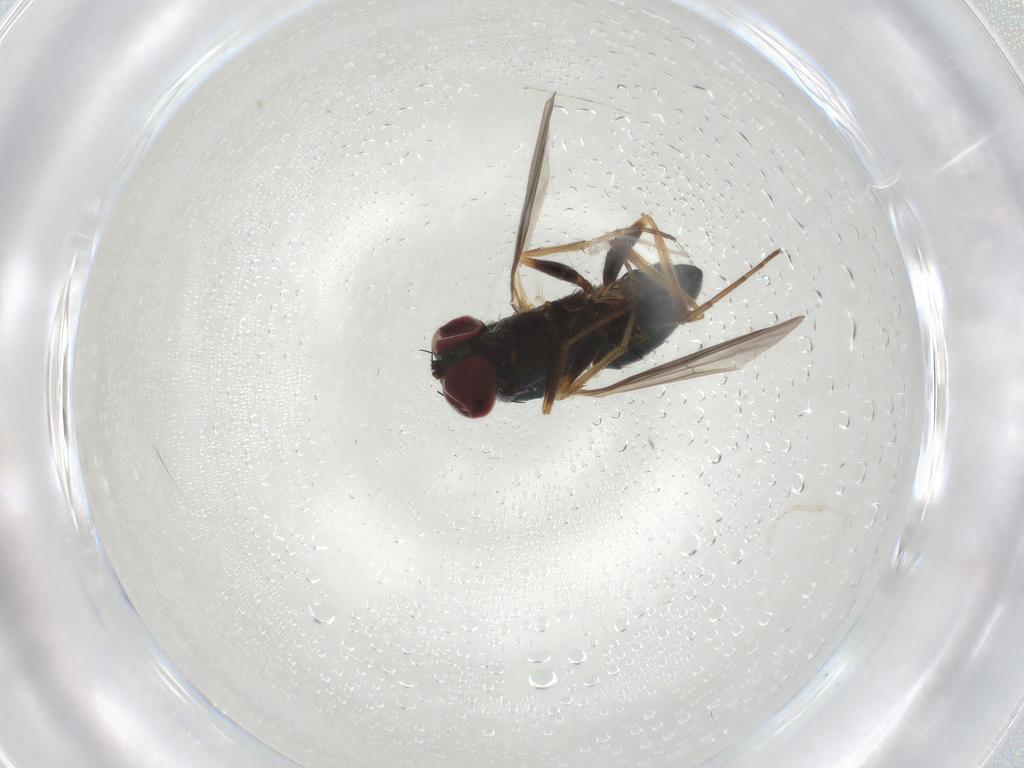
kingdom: Animalia
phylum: Arthropoda
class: Insecta
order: Diptera
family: Dolichopodidae
